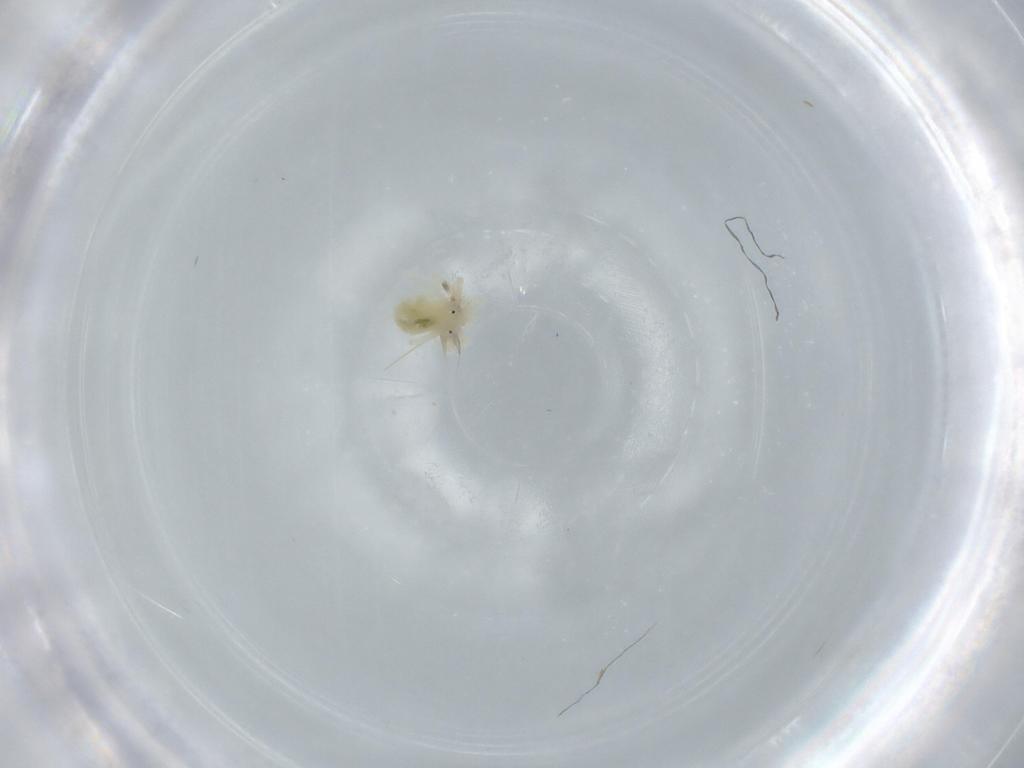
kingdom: Animalia
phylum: Arthropoda
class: Arachnida
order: Trombidiformes
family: Anystidae
